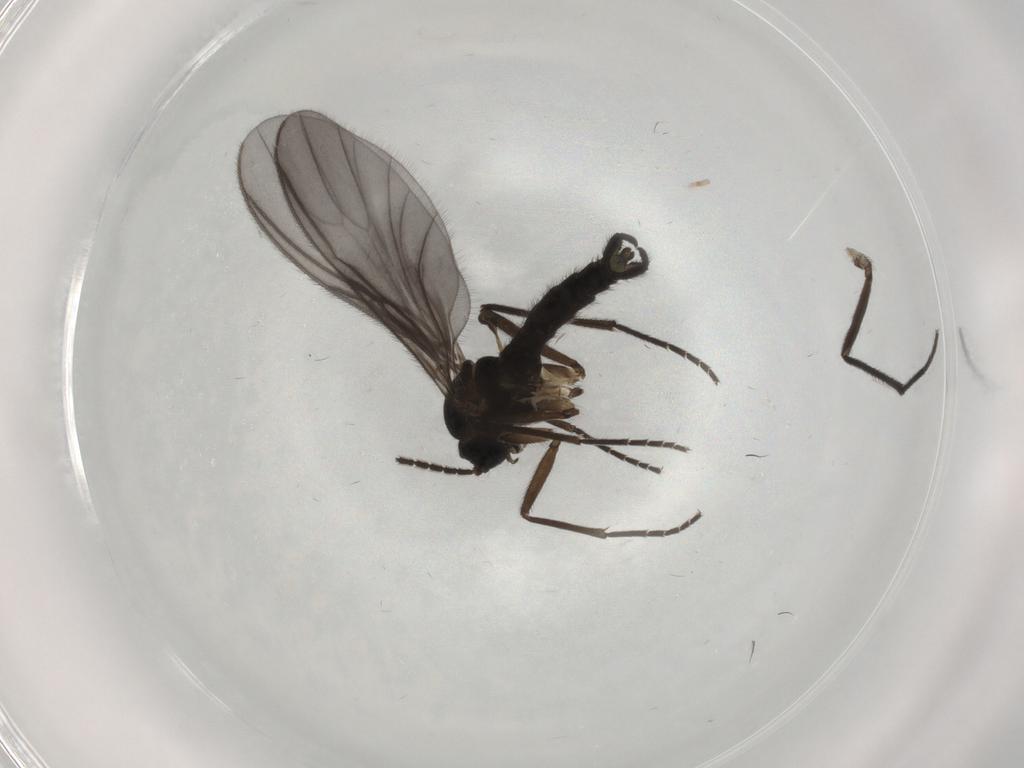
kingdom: Animalia
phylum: Arthropoda
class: Insecta
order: Diptera
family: Sciaridae
